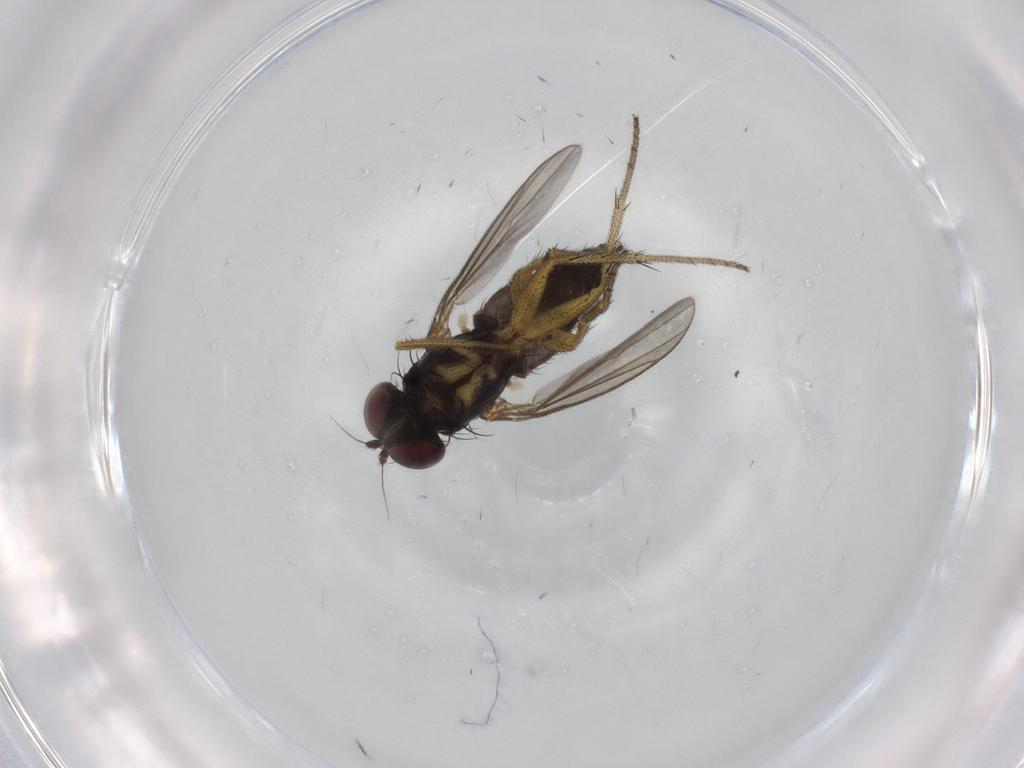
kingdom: Animalia
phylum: Arthropoda
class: Insecta
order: Diptera
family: Dolichopodidae
